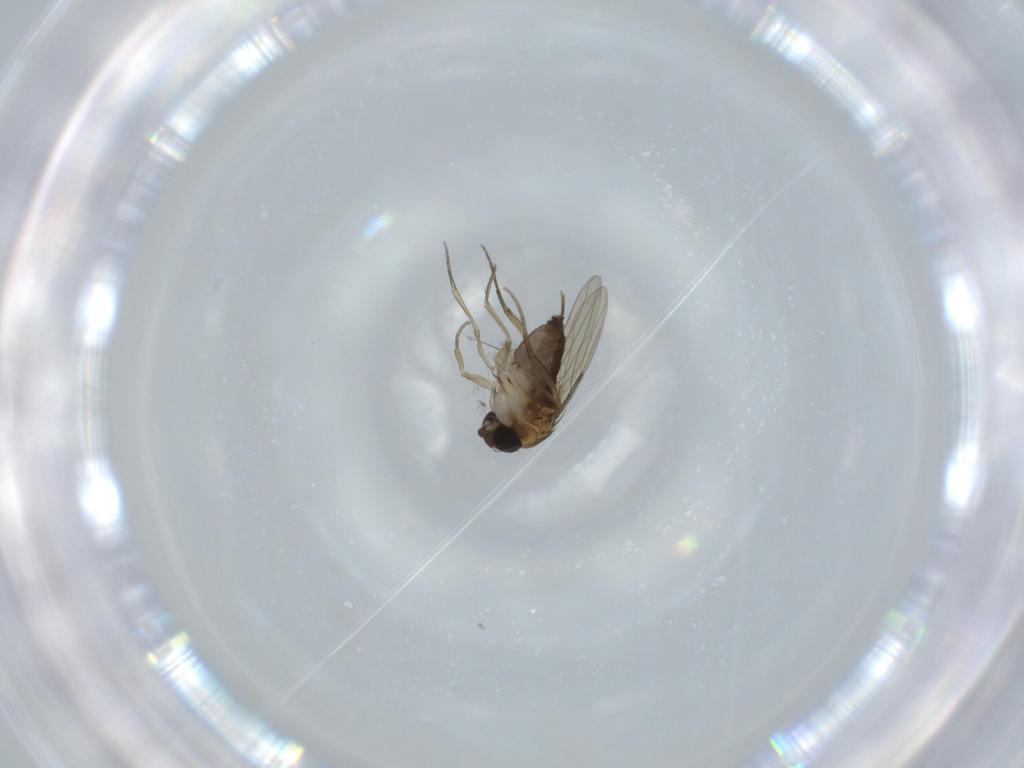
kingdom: Animalia
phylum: Arthropoda
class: Insecta
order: Diptera
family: Phoridae
